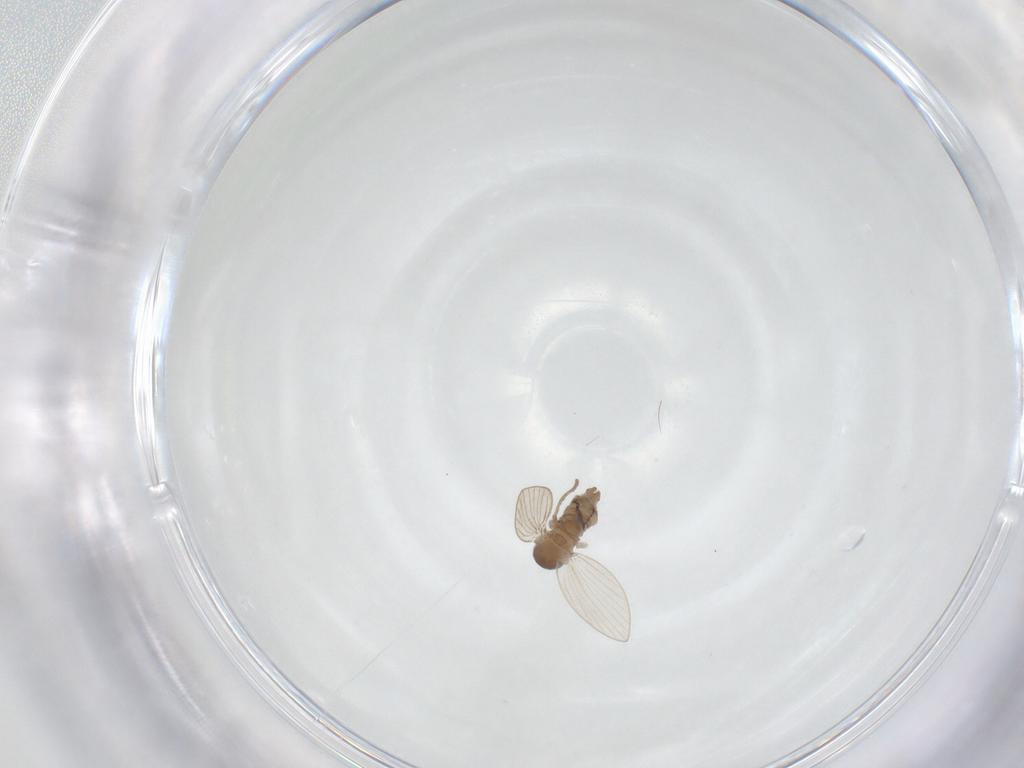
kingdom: Animalia
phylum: Arthropoda
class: Insecta
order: Diptera
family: Psychodidae
